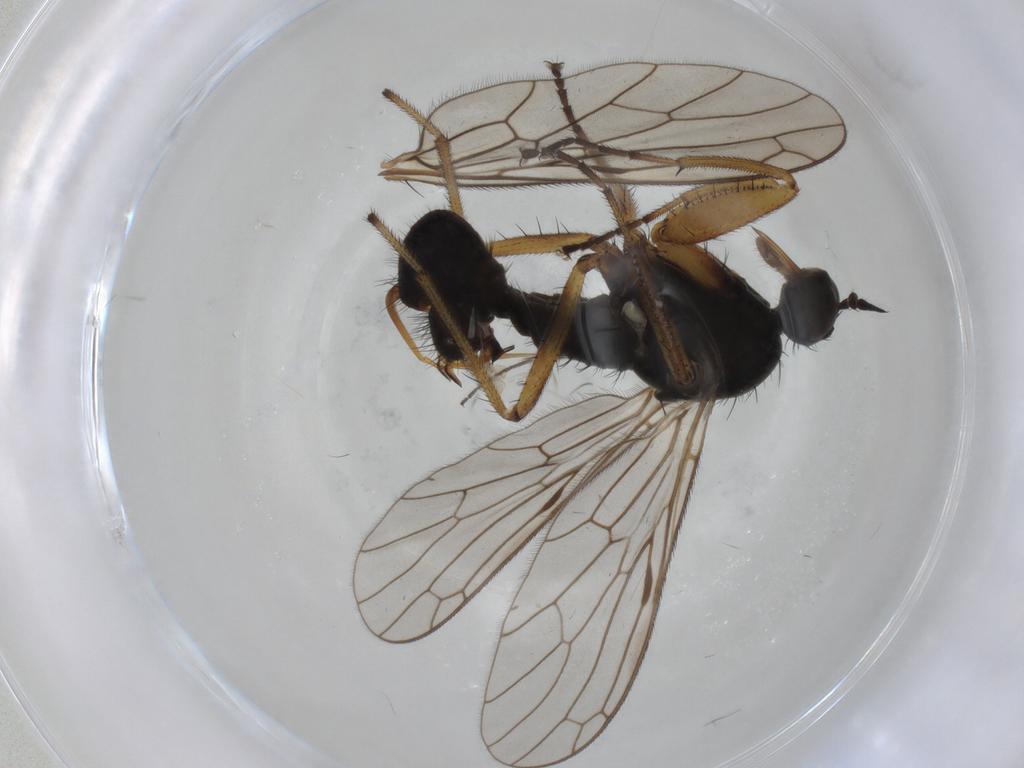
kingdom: Animalia
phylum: Arthropoda
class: Insecta
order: Diptera
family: Empididae
